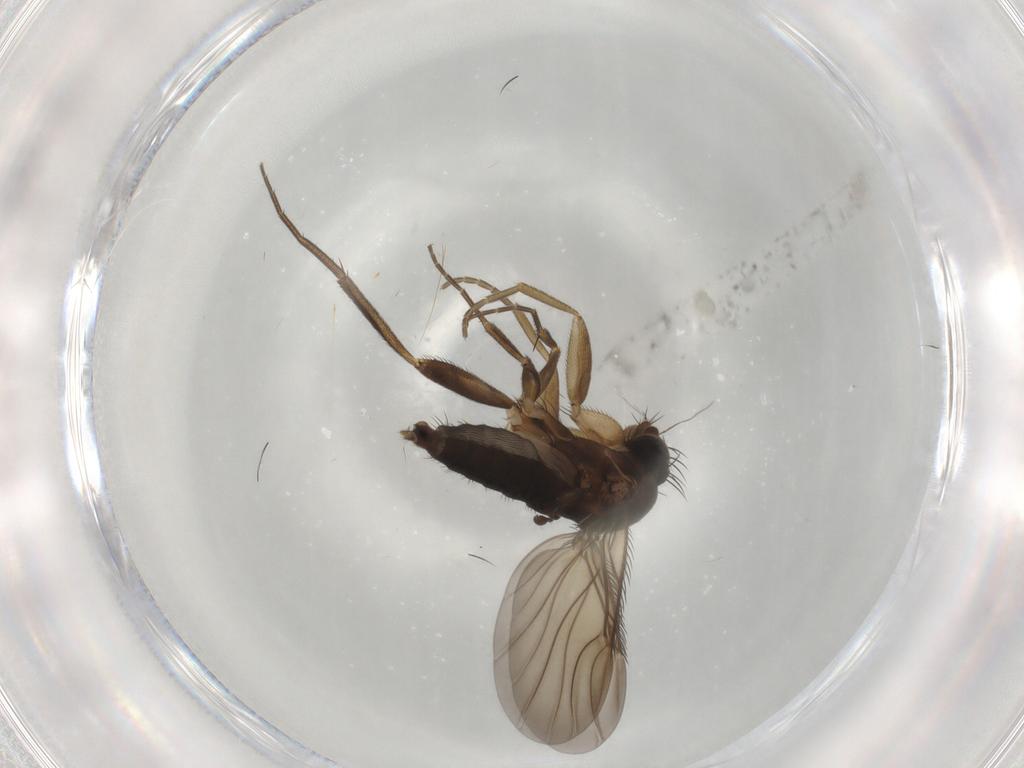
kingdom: Animalia
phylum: Arthropoda
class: Insecta
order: Diptera
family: Phoridae
